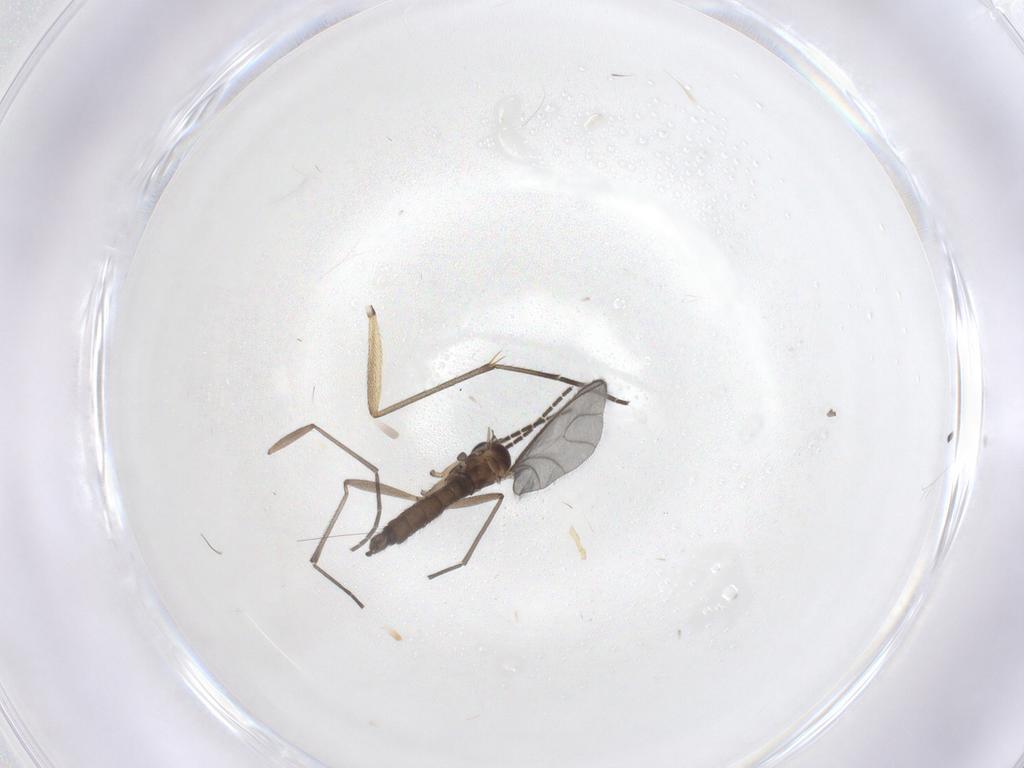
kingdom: Animalia
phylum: Arthropoda
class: Insecta
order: Diptera
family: Sciaridae
